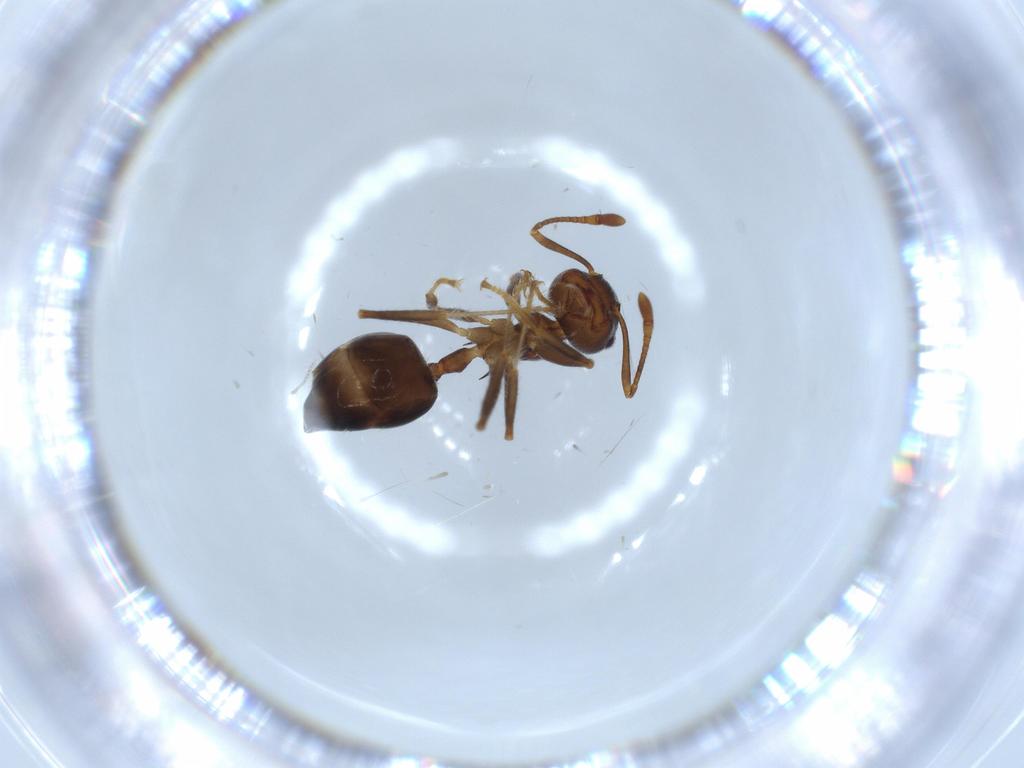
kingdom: Animalia
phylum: Arthropoda
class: Insecta
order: Hymenoptera
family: Formicidae
